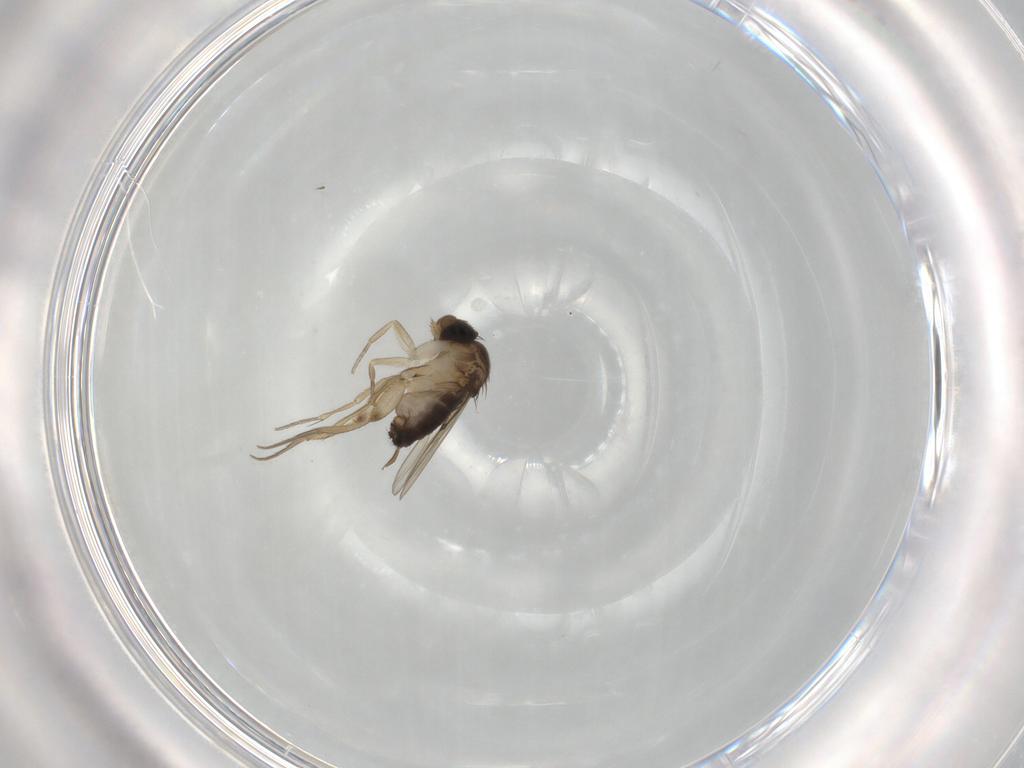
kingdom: Animalia
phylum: Arthropoda
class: Insecta
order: Diptera
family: Phoridae
